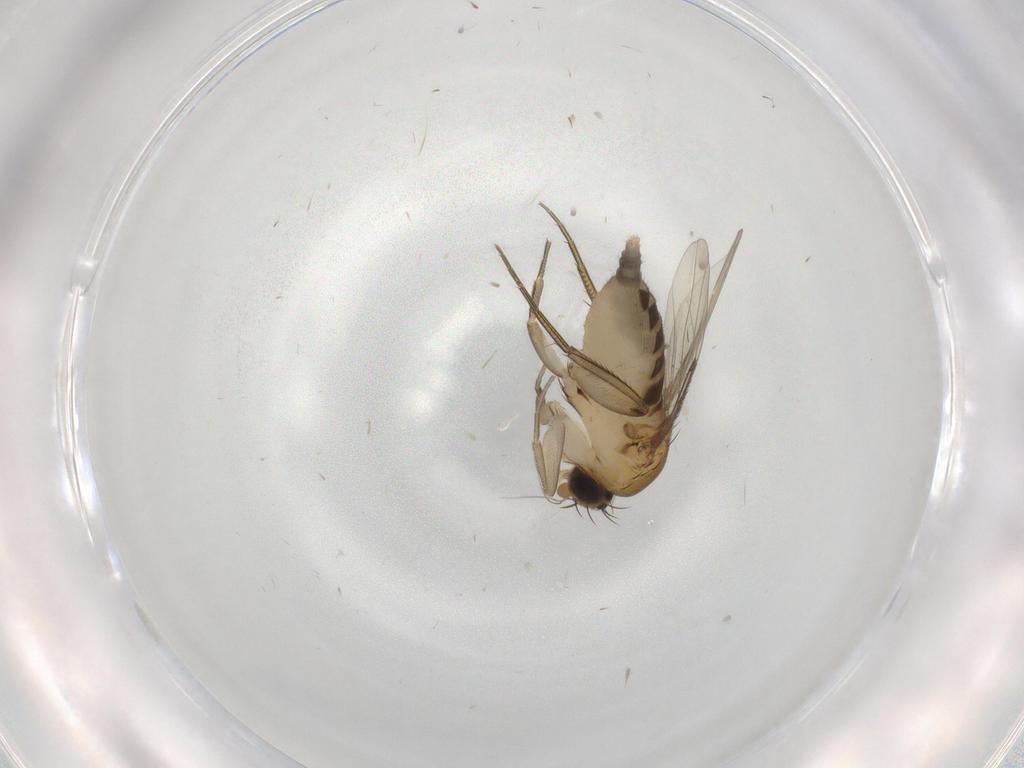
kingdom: Animalia
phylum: Arthropoda
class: Insecta
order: Diptera
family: Phoridae
